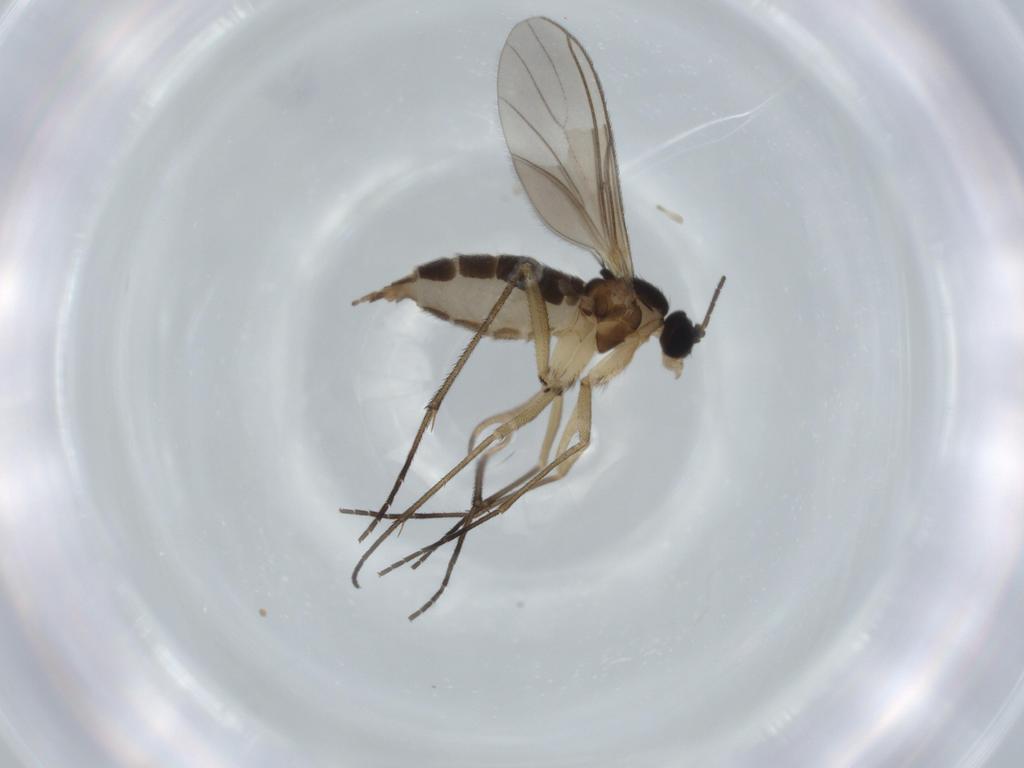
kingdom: Animalia
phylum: Arthropoda
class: Insecta
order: Diptera
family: Sciaridae
